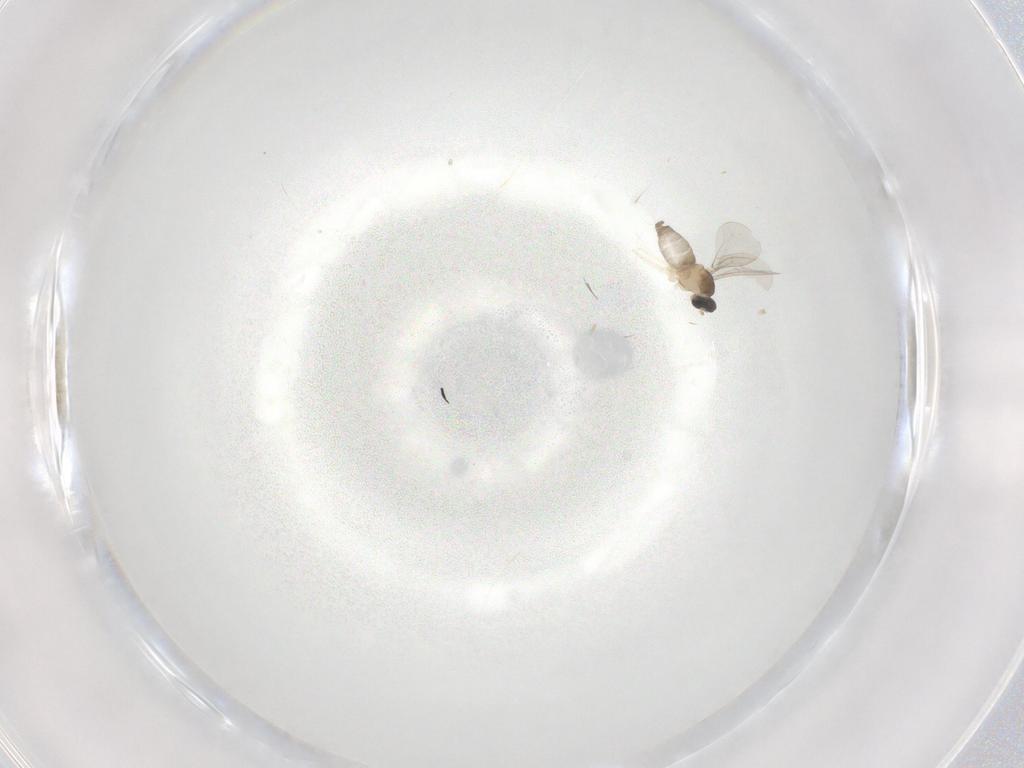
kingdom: Animalia
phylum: Arthropoda
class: Insecta
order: Diptera
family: Cecidomyiidae
